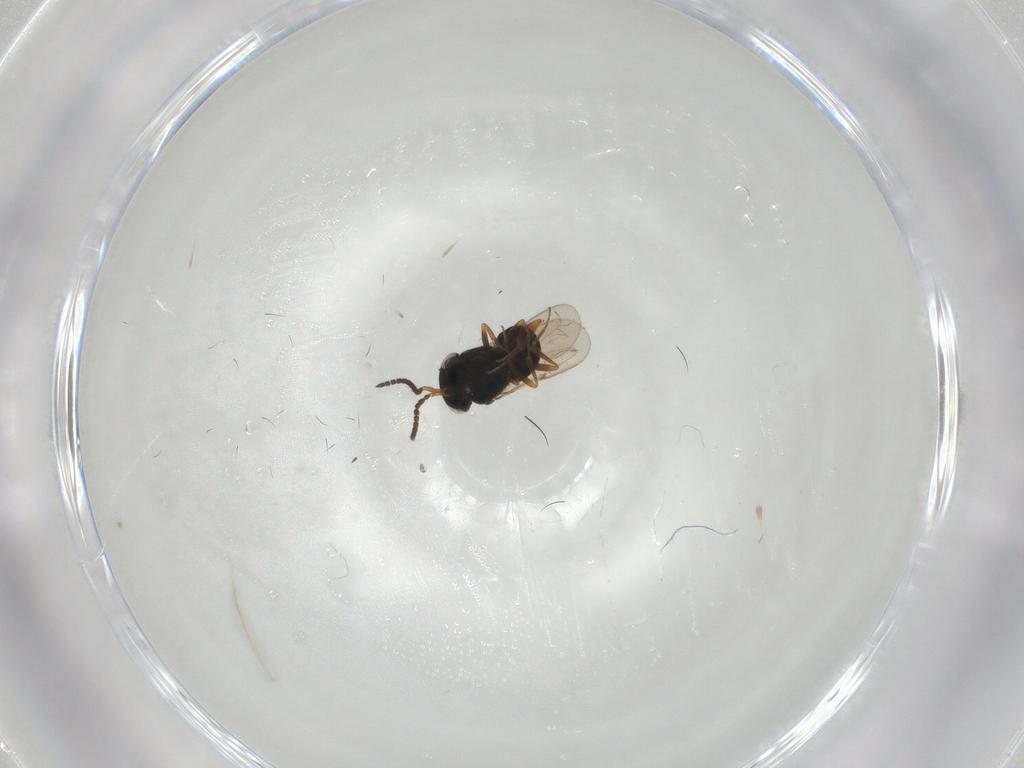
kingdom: Animalia
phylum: Arthropoda
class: Insecta
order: Hymenoptera
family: Scelionidae
